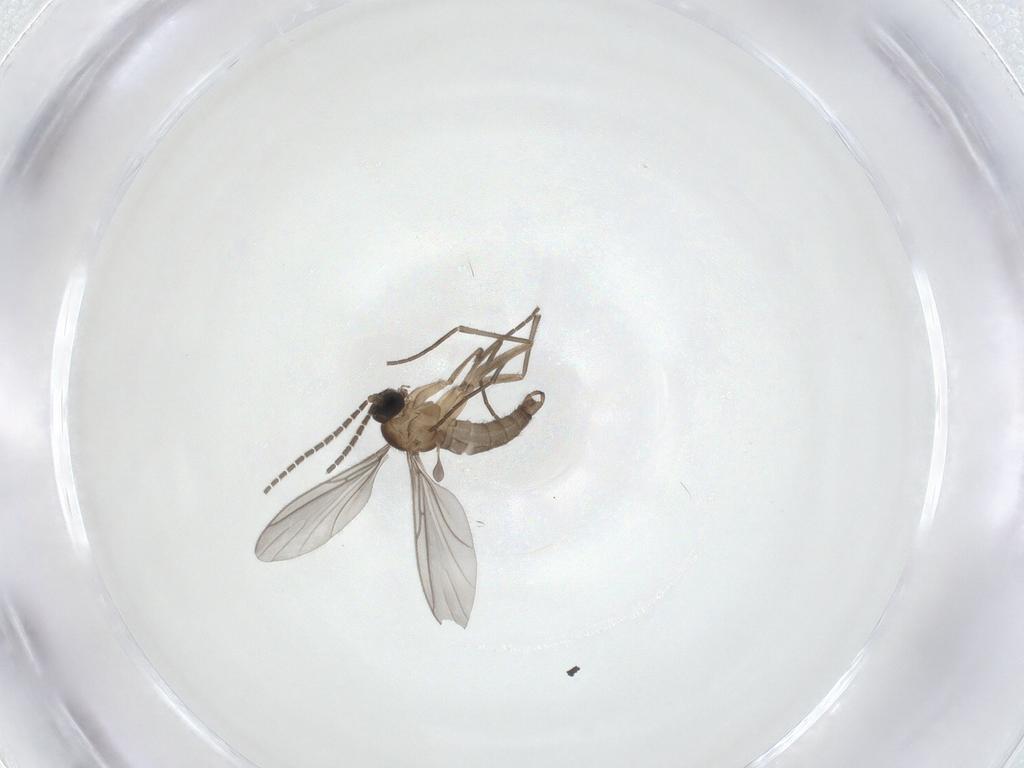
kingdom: Animalia
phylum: Arthropoda
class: Insecta
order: Diptera
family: Sciaridae
